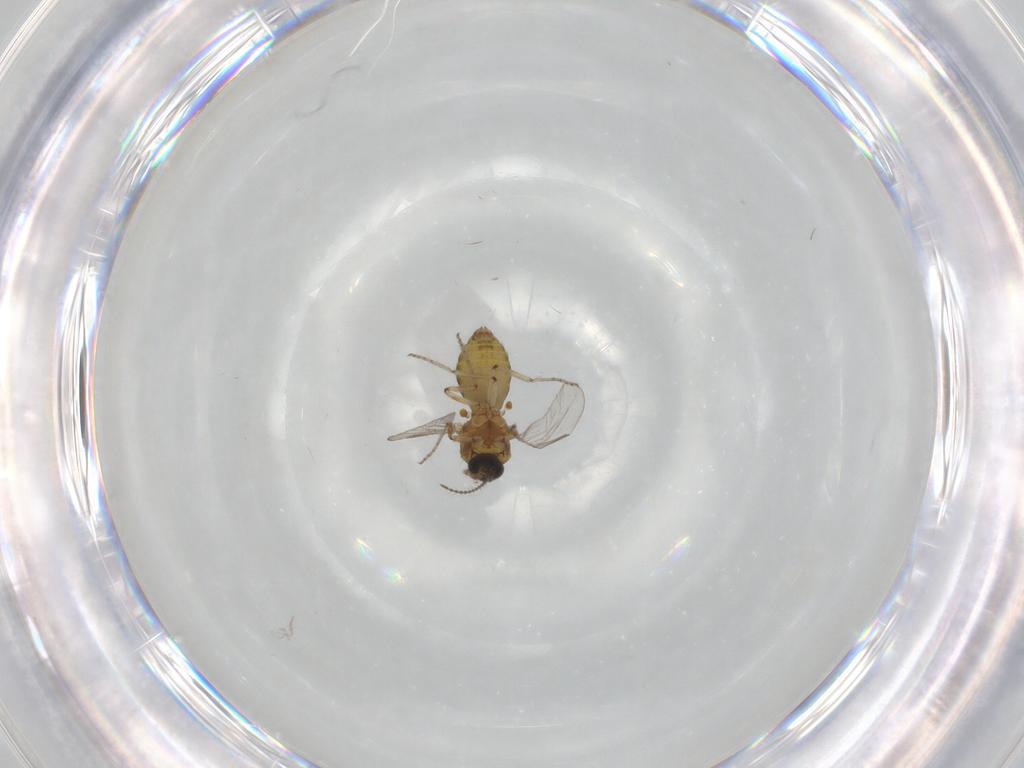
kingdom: Animalia
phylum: Arthropoda
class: Insecta
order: Diptera
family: Ceratopogonidae
